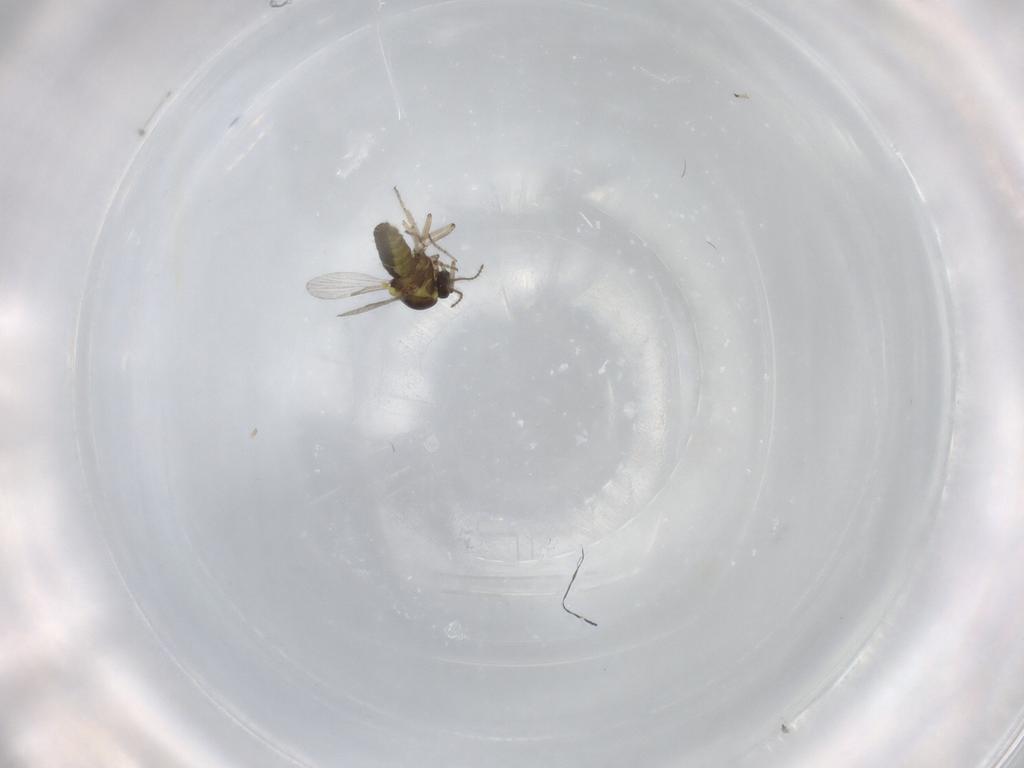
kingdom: Animalia
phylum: Arthropoda
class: Insecta
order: Diptera
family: Ceratopogonidae
